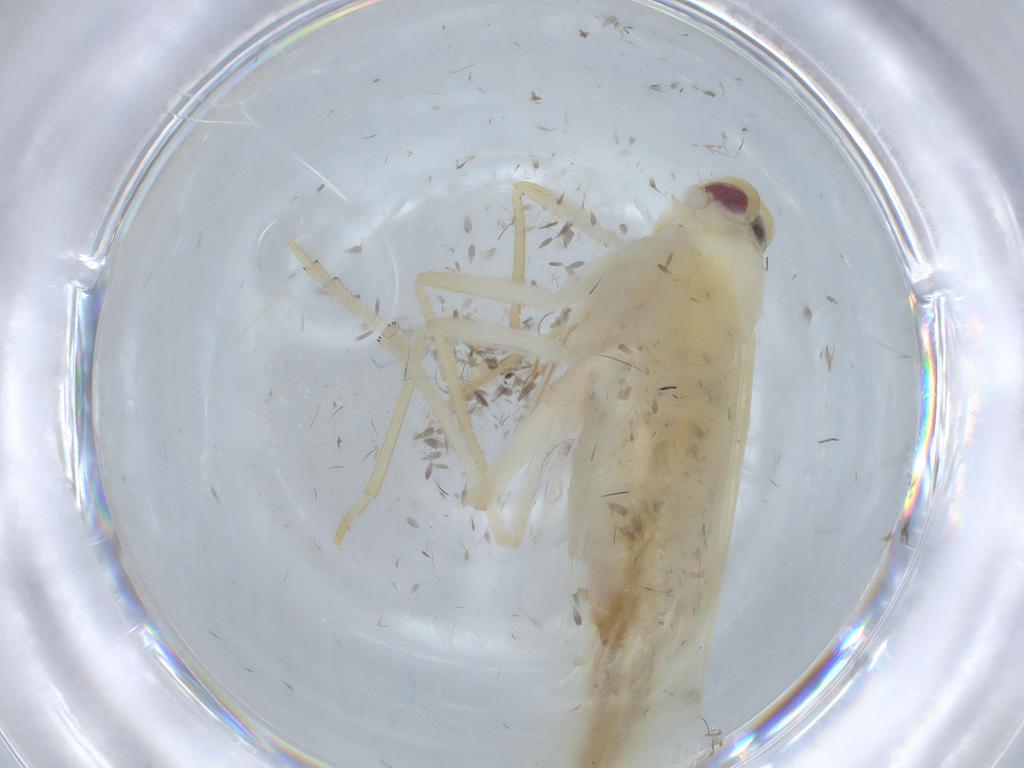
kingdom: Animalia
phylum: Arthropoda
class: Insecta
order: Hemiptera
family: Derbidae
